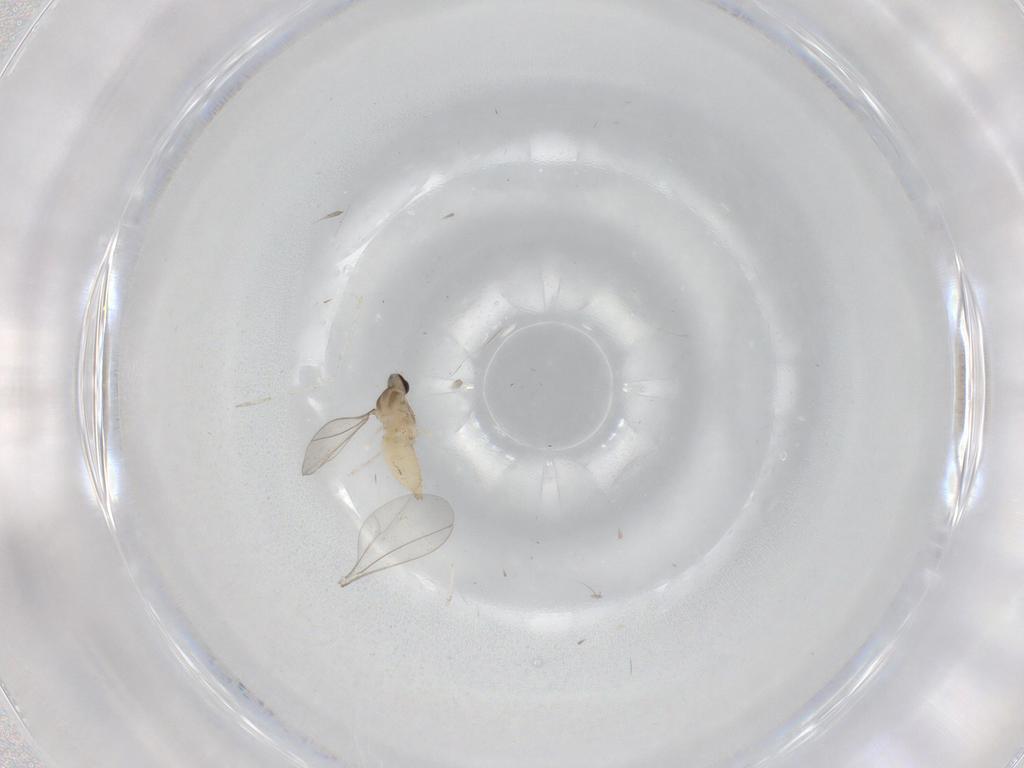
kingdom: Animalia
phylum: Arthropoda
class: Insecta
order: Diptera
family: Cecidomyiidae
